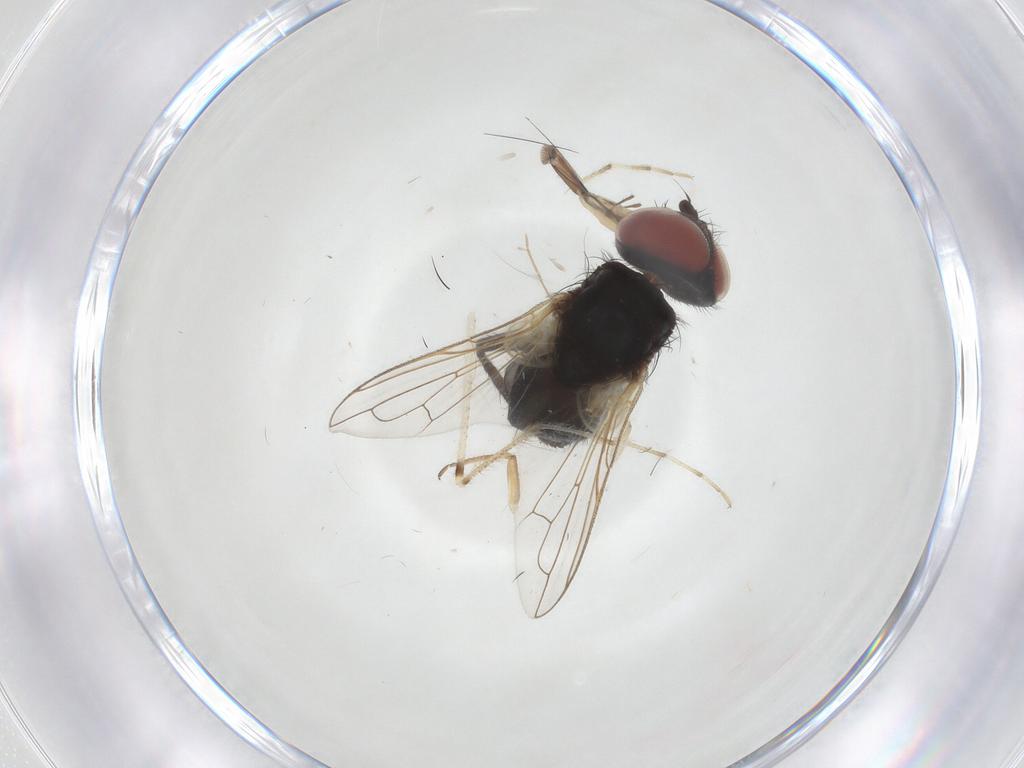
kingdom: Animalia
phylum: Arthropoda
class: Insecta
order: Diptera
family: Tachinidae
